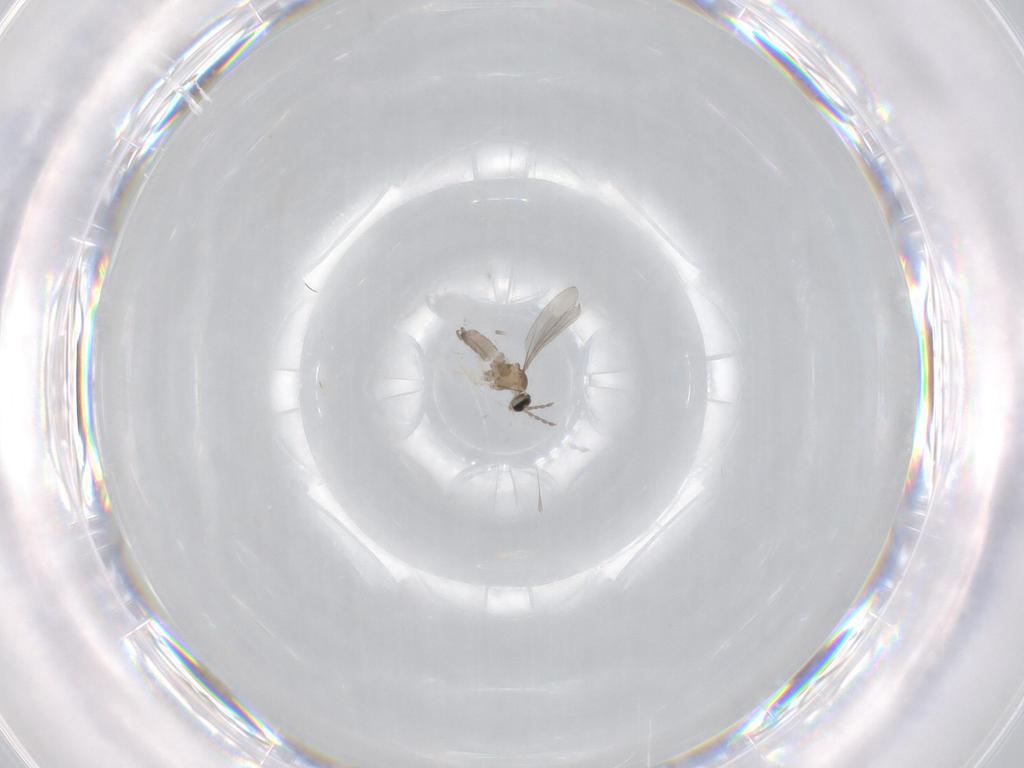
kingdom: Animalia
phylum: Arthropoda
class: Insecta
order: Diptera
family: Cecidomyiidae
